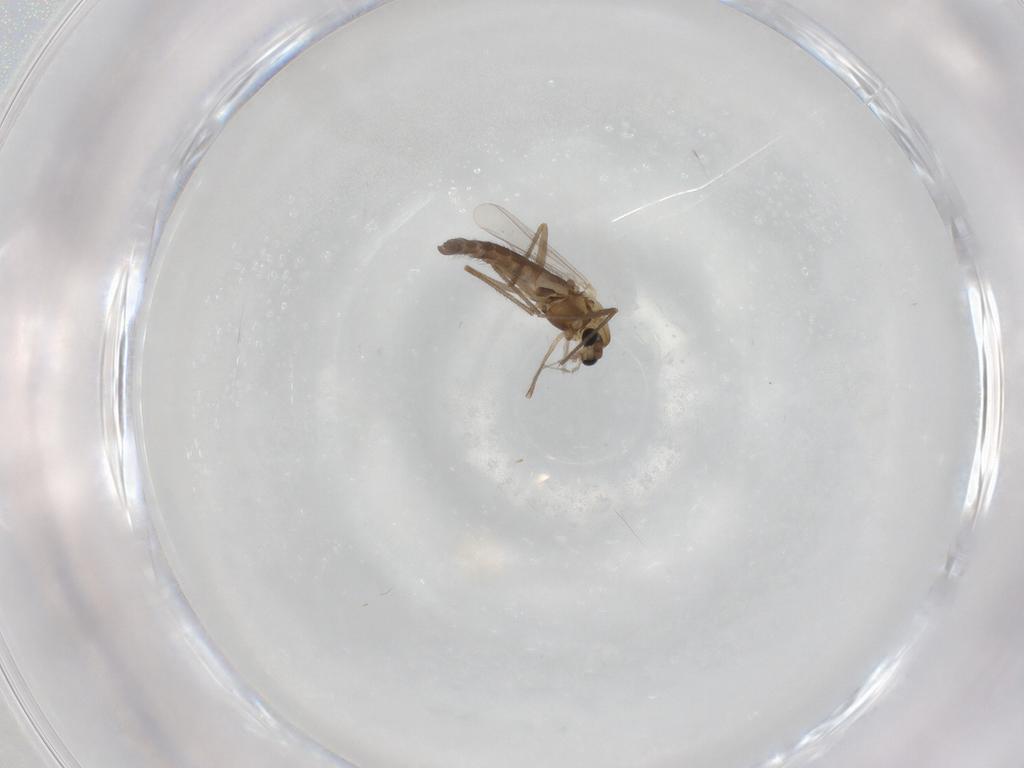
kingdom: Animalia
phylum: Arthropoda
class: Insecta
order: Diptera
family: Chironomidae
